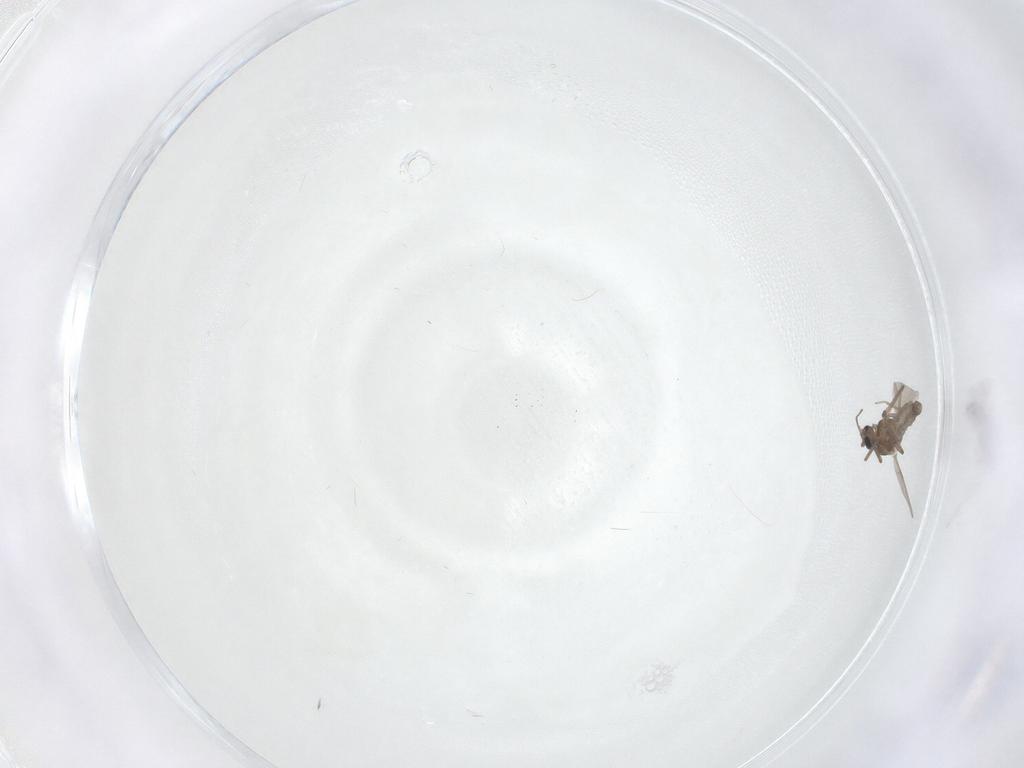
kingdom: Animalia
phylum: Arthropoda
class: Insecta
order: Diptera
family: Ceratopogonidae
